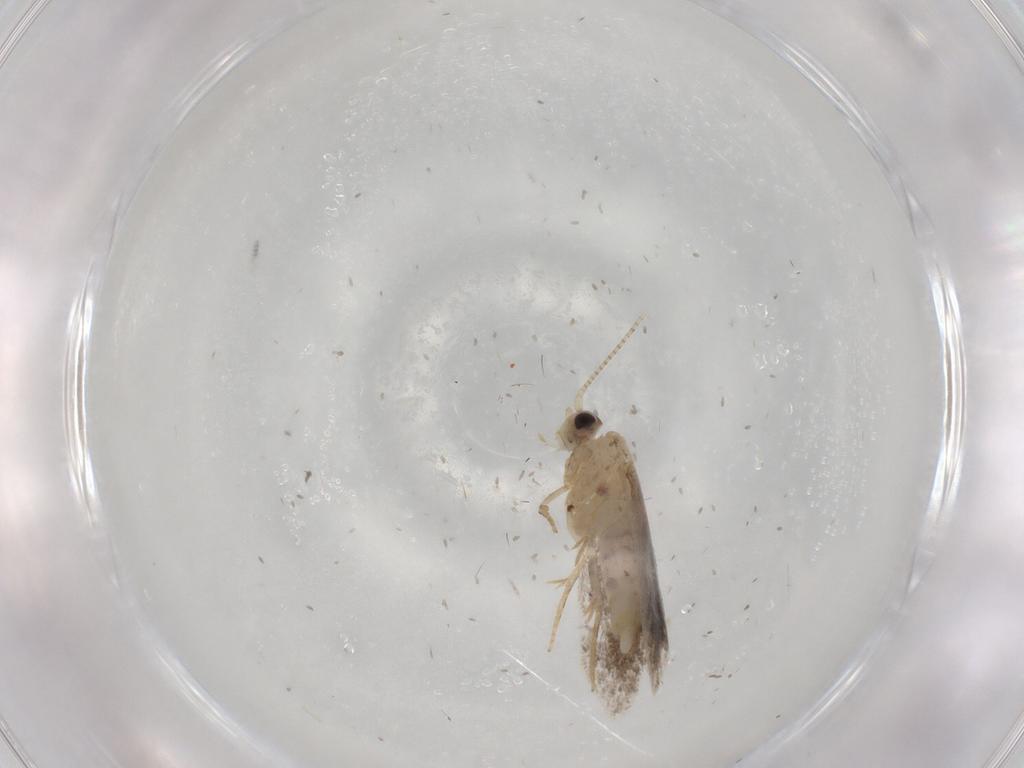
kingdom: Animalia
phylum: Arthropoda
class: Insecta
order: Lepidoptera
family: Nepticulidae
